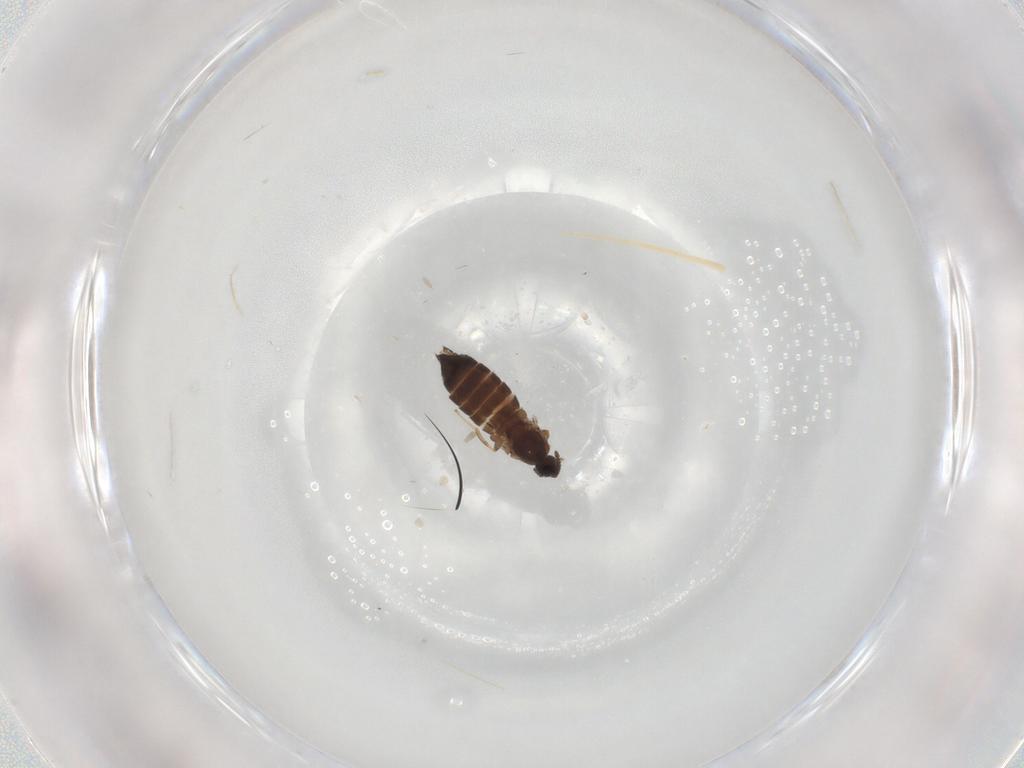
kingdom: Animalia
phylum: Arthropoda
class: Insecta
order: Diptera
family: Scatopsidae
